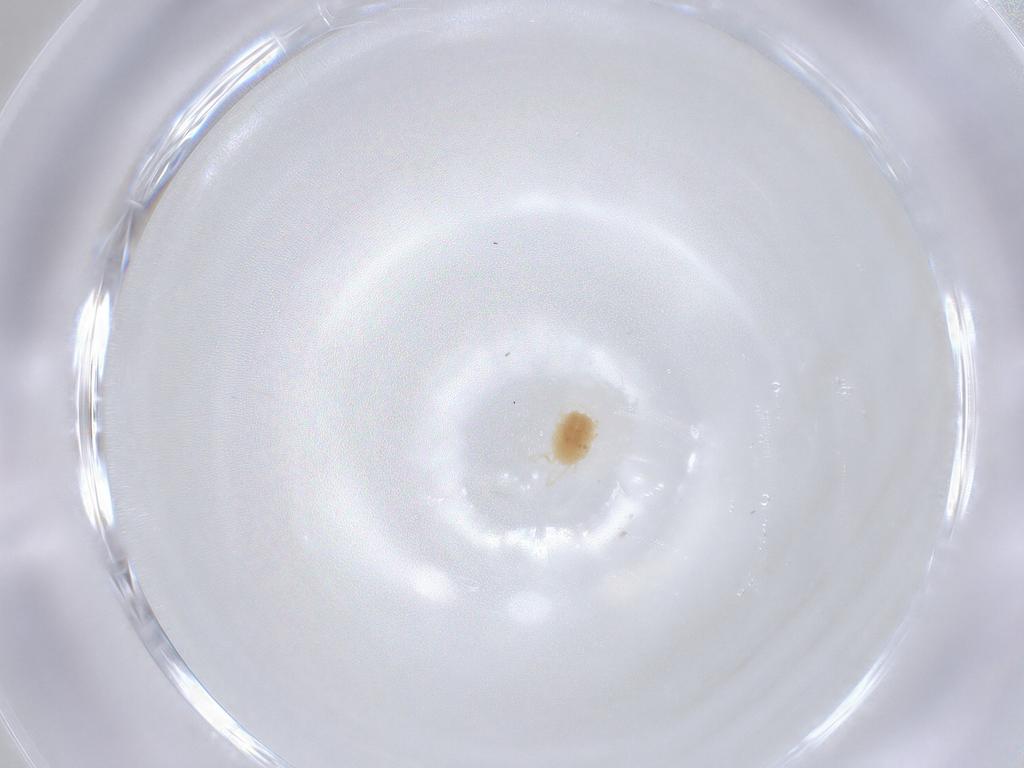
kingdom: Animalia
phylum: Arthropoda
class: Arachnida
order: Trombidiformes
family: Tetranychidae
